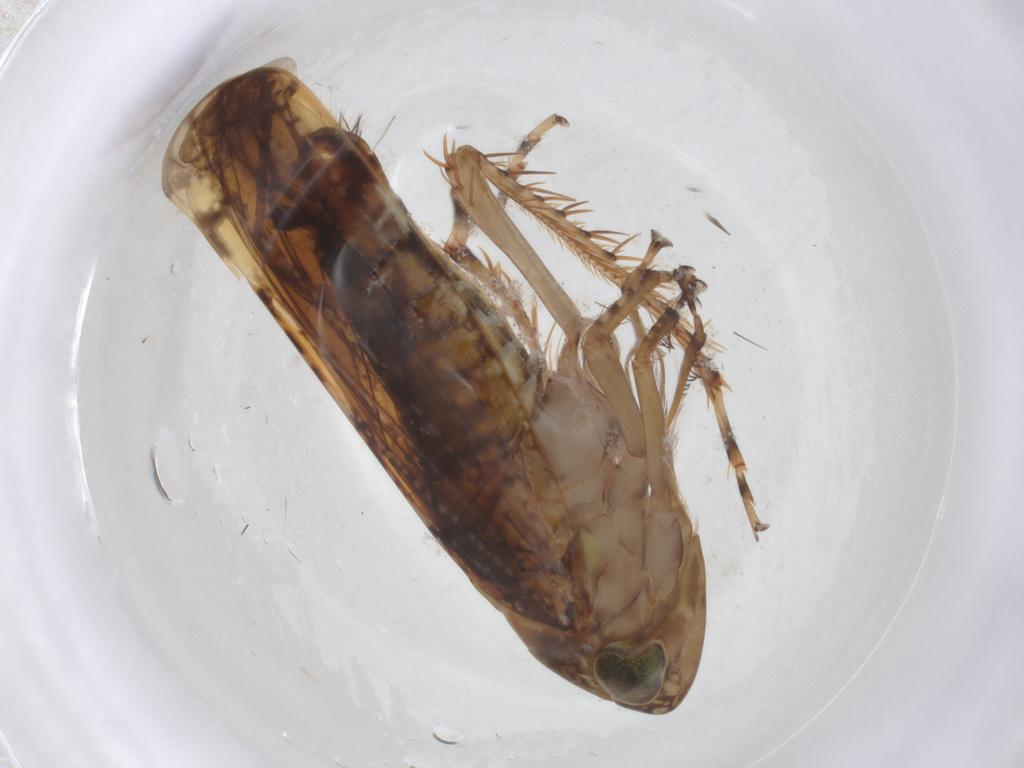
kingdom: Animalia
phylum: Arthropoda
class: Insecta
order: Hemiptera
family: Cicadellidae
